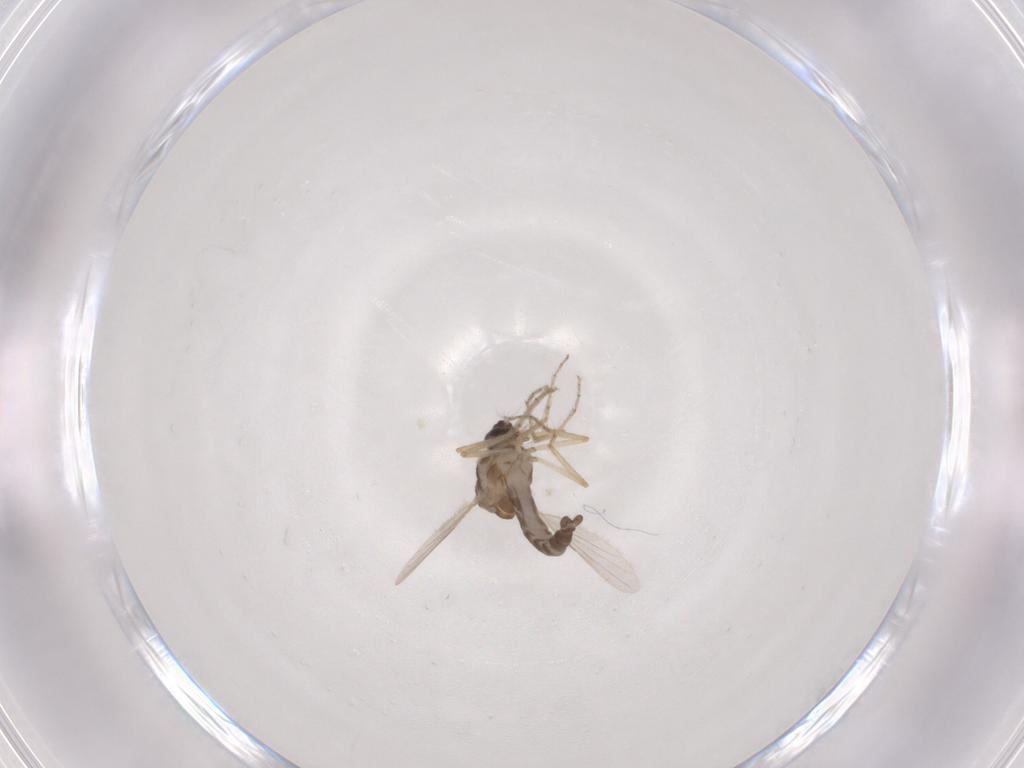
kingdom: Animalia
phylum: Arthropoda
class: Insecta
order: Diptera
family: Ceratopogonidae
